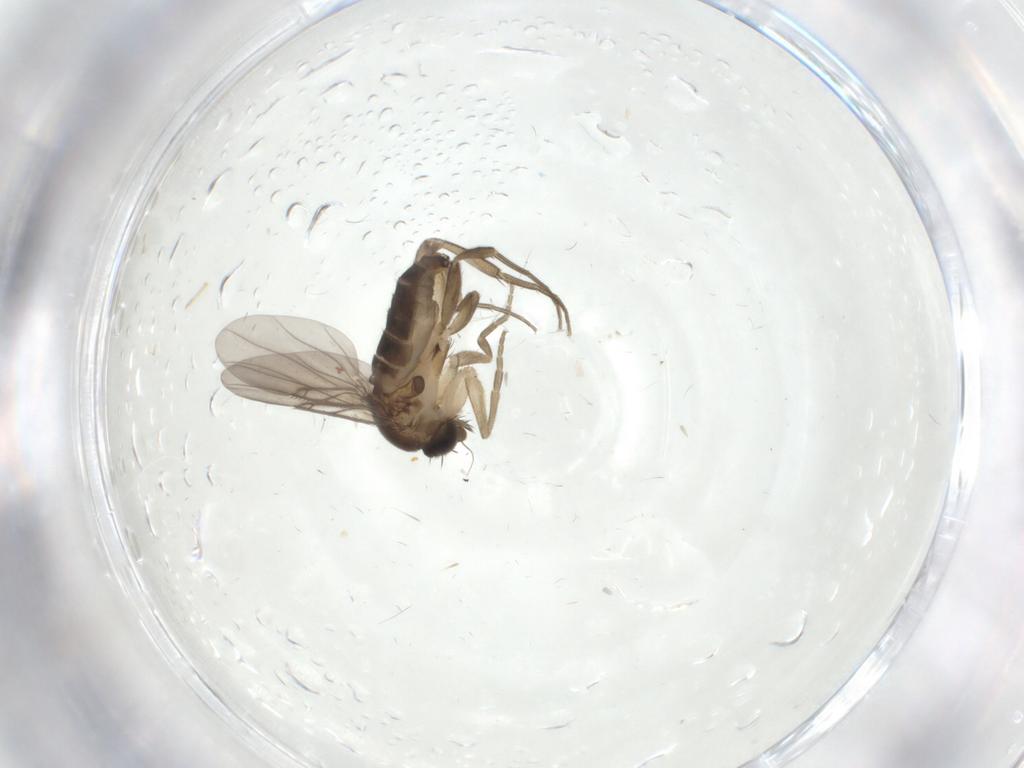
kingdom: Animalia
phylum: Arthropoda
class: Insecta
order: Diptera
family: Phoridae
